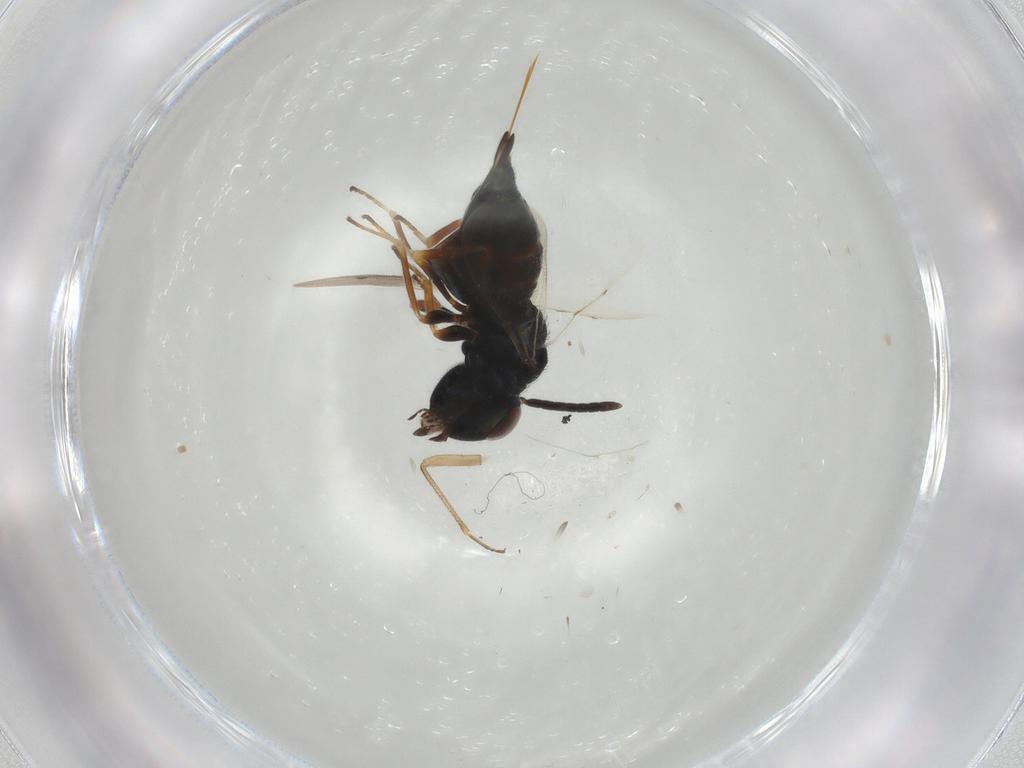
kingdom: Animalia
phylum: Arthropoda
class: Insecta
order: Hymenoptera
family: Pteromalidae
